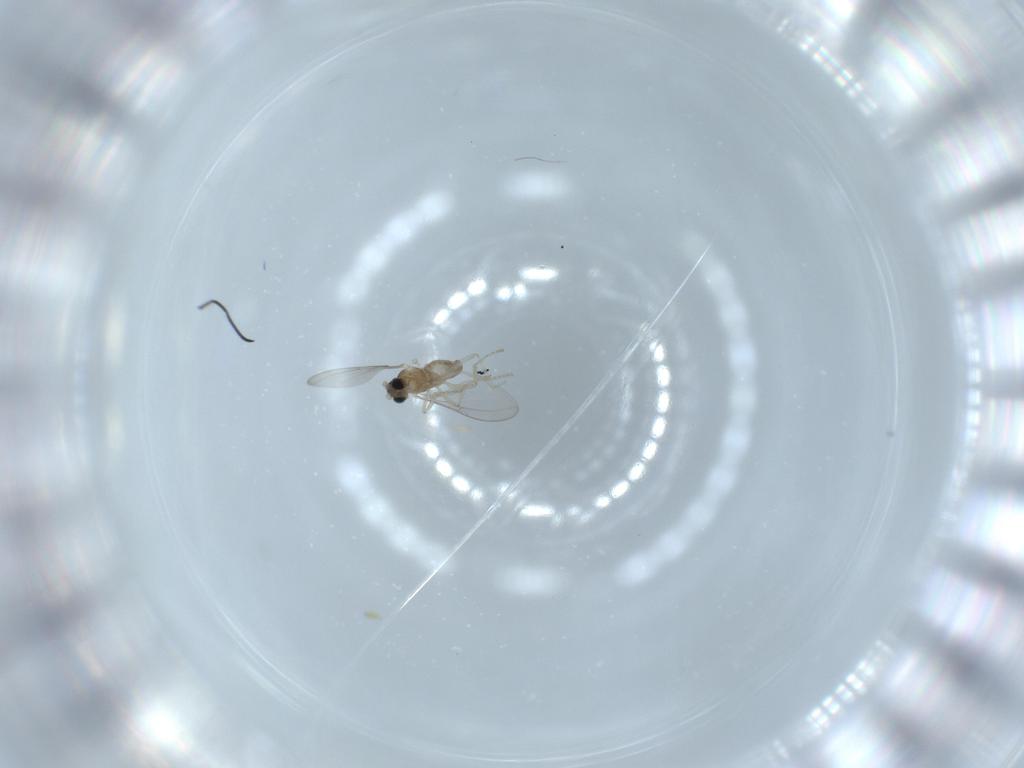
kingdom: Animalia
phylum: Arthropoda
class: Insecta
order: Diptera
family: Cecidomyiidae
